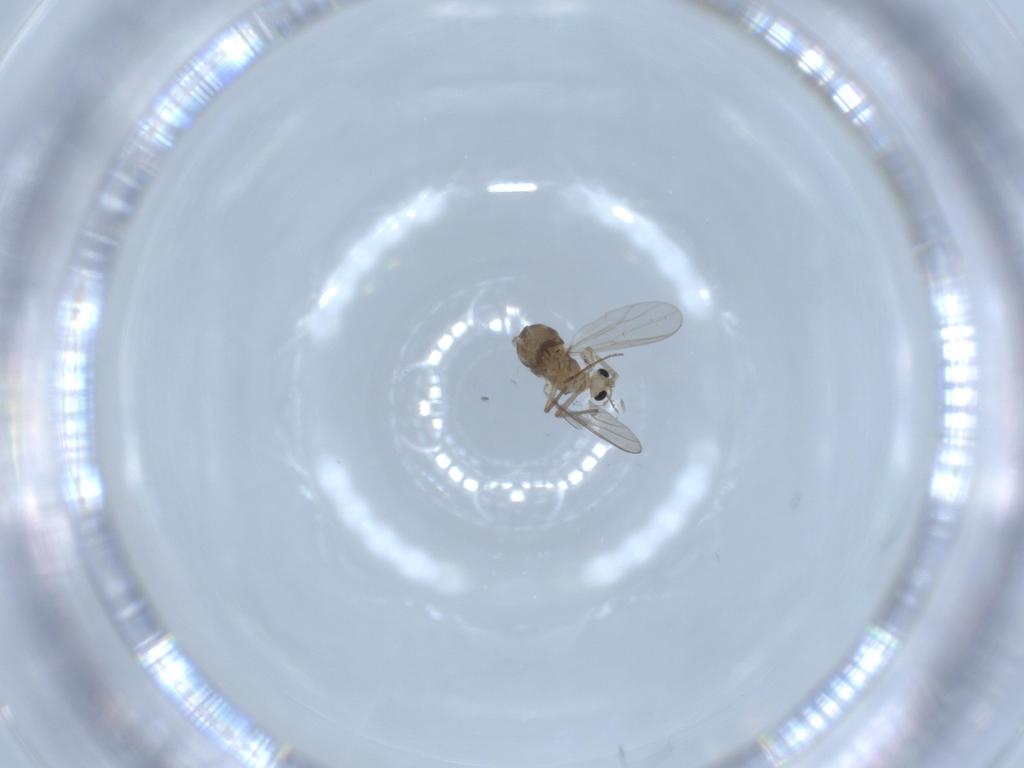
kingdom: Animalia
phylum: Arthropoda
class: Insecta
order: Diptera
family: Chironomidae
